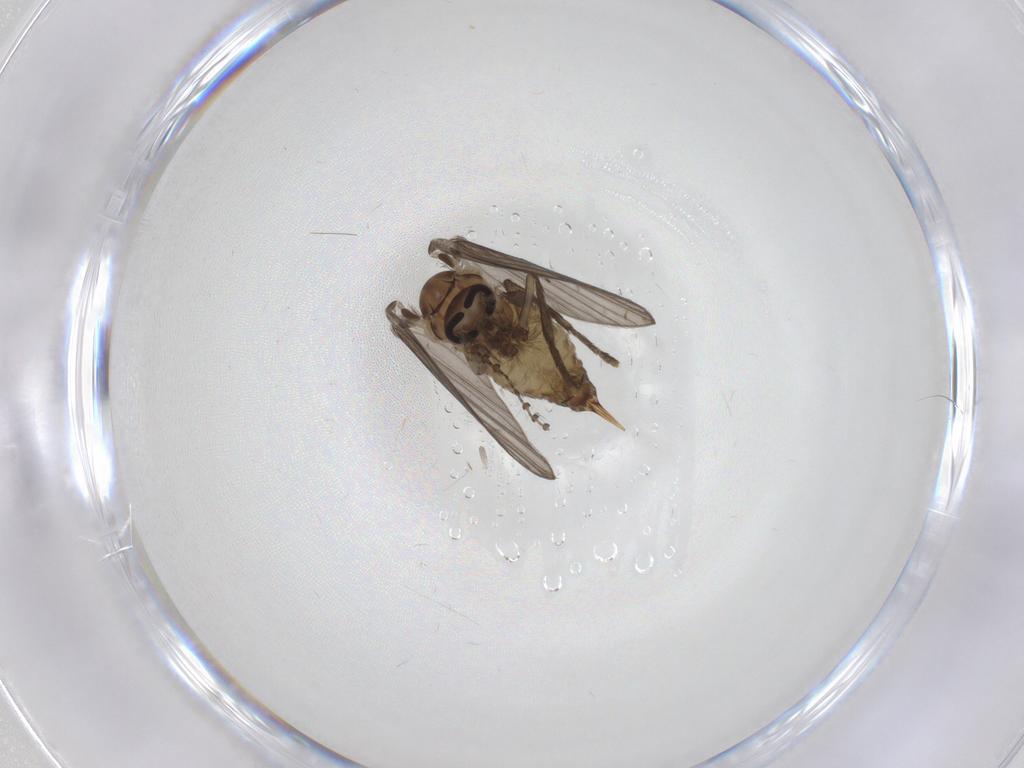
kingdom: Animalia
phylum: Arthropoda
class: Insecta
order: Diptera
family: Psychodidae
